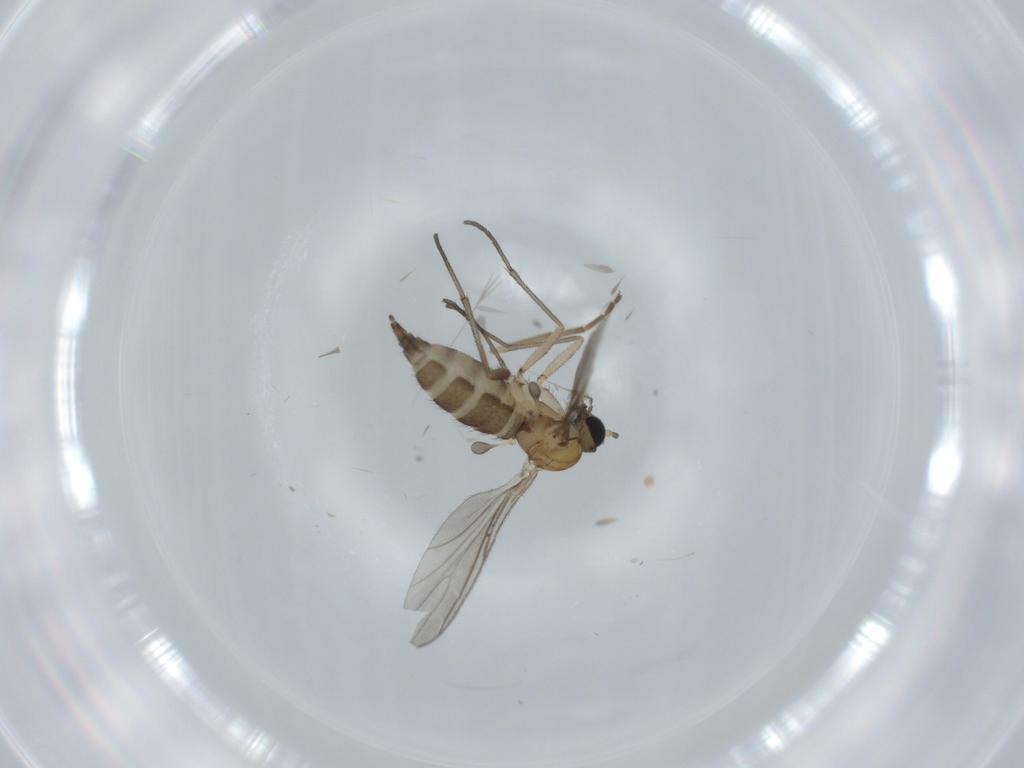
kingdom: Animalia
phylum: Arthropoda
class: Insecta
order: Diptera
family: Sciaridae
